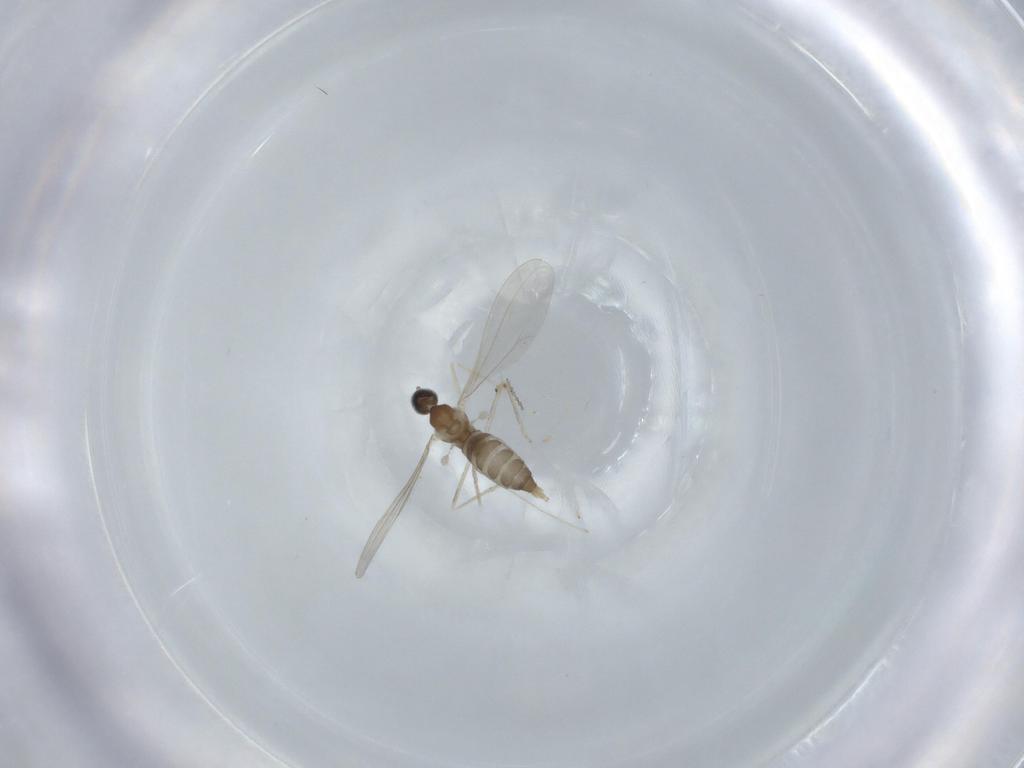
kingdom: Animalia
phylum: Arthropoda
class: Insecta
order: Diptera
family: Cecidomyiidae
